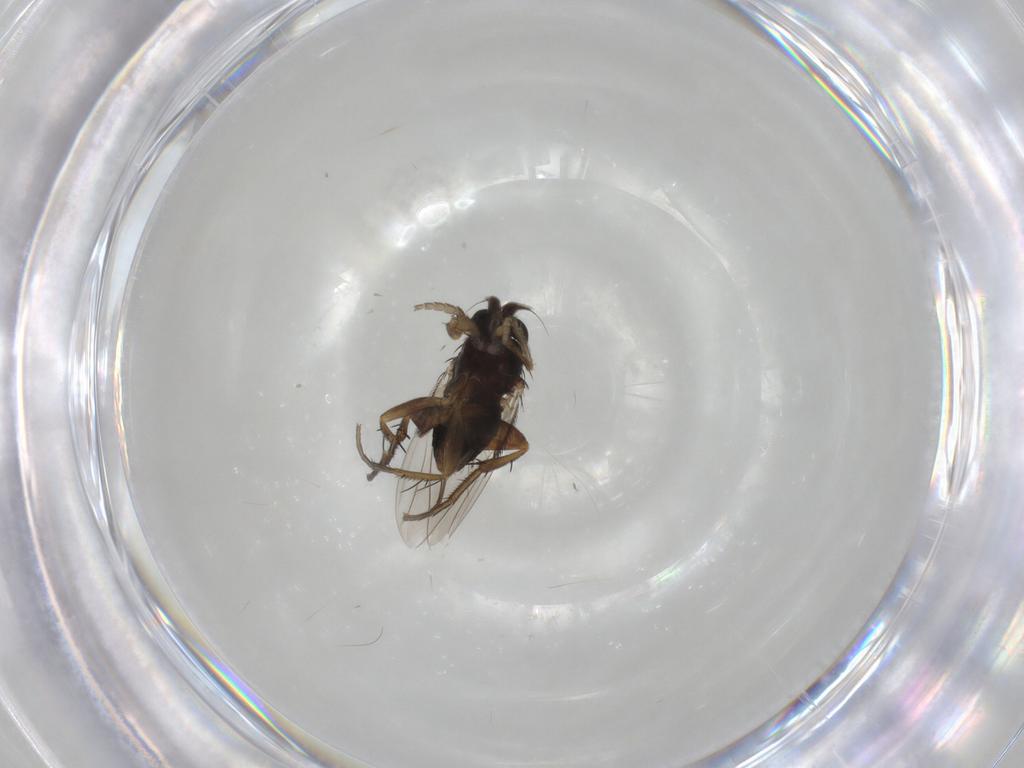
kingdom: Animalia
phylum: Arthropoda
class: Insecta
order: Diptera
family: Phoridae
